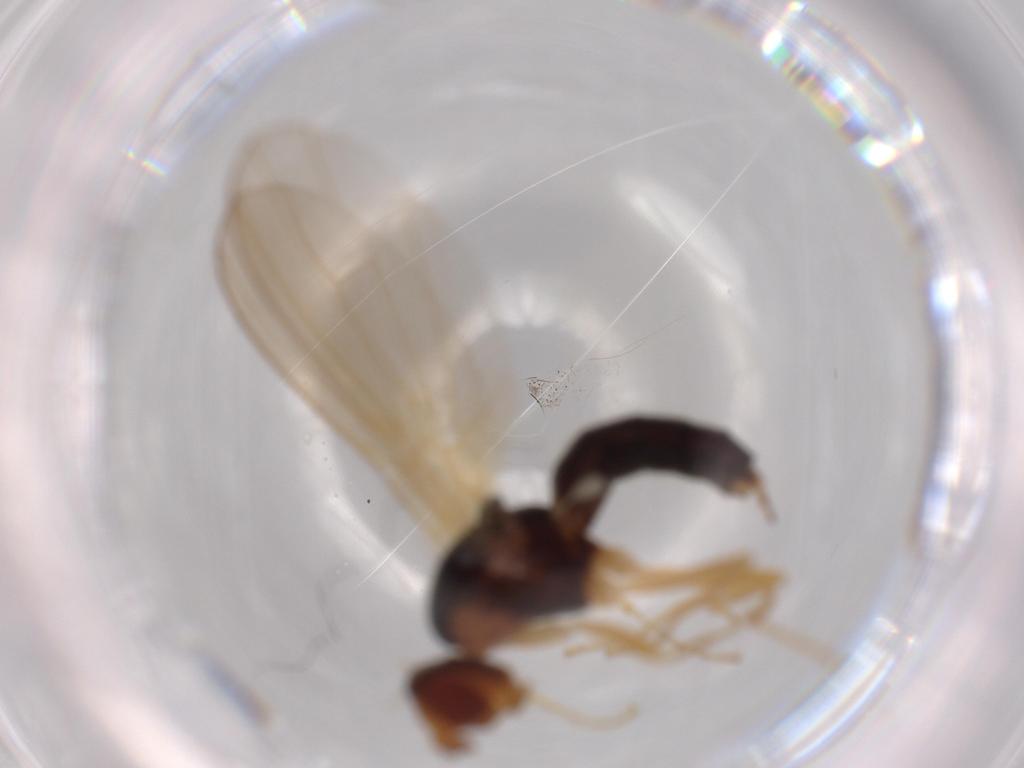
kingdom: Animalia
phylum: Arthropoda
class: Insecta
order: Diptera
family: Psilidae
